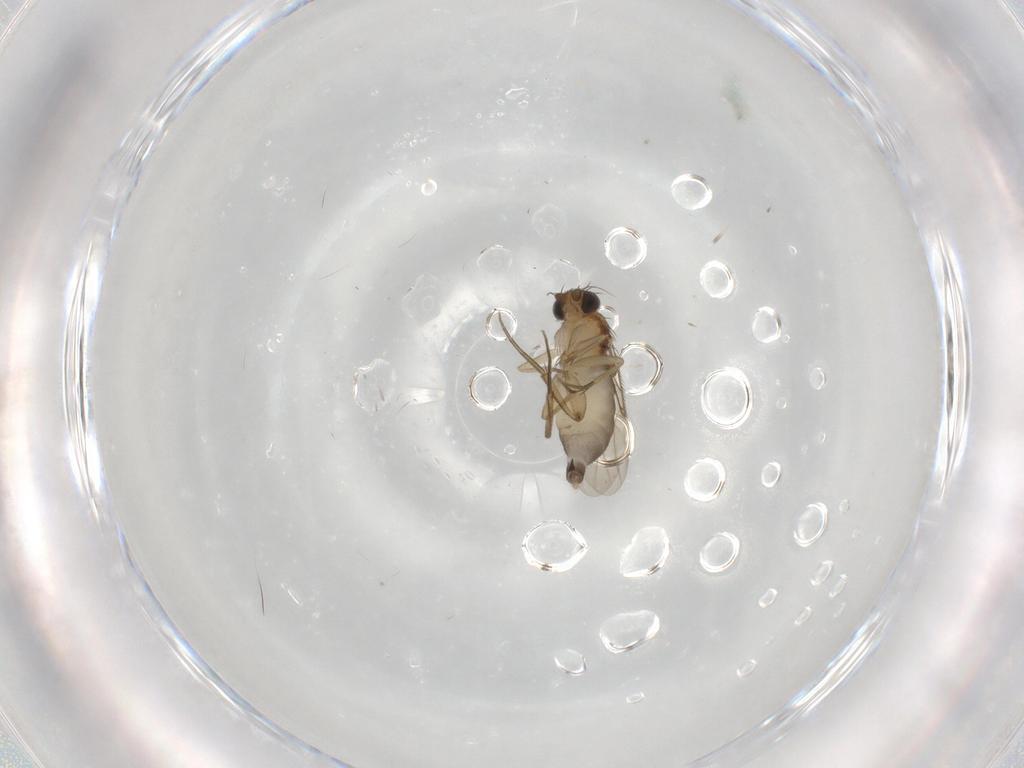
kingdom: Animalia
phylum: Arthropoda
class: Insecta
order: Diptera
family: Phoridae
